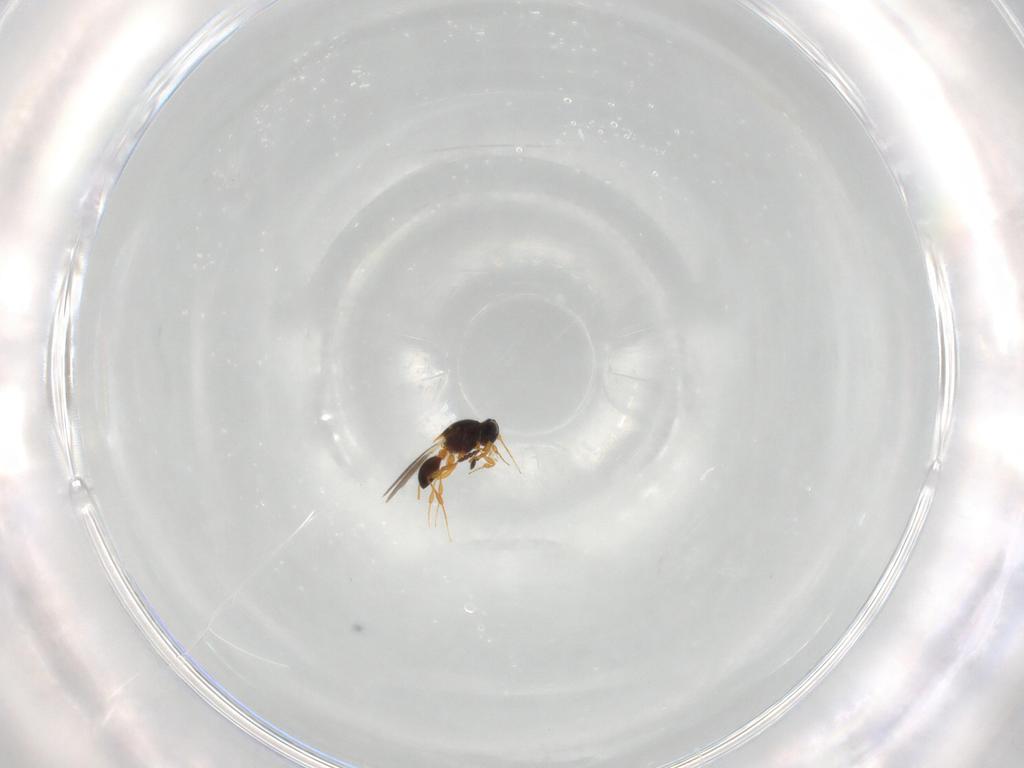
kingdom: Animalia
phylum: Arthropoda
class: Insecta
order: Hymenoptera
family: Platygastridae
